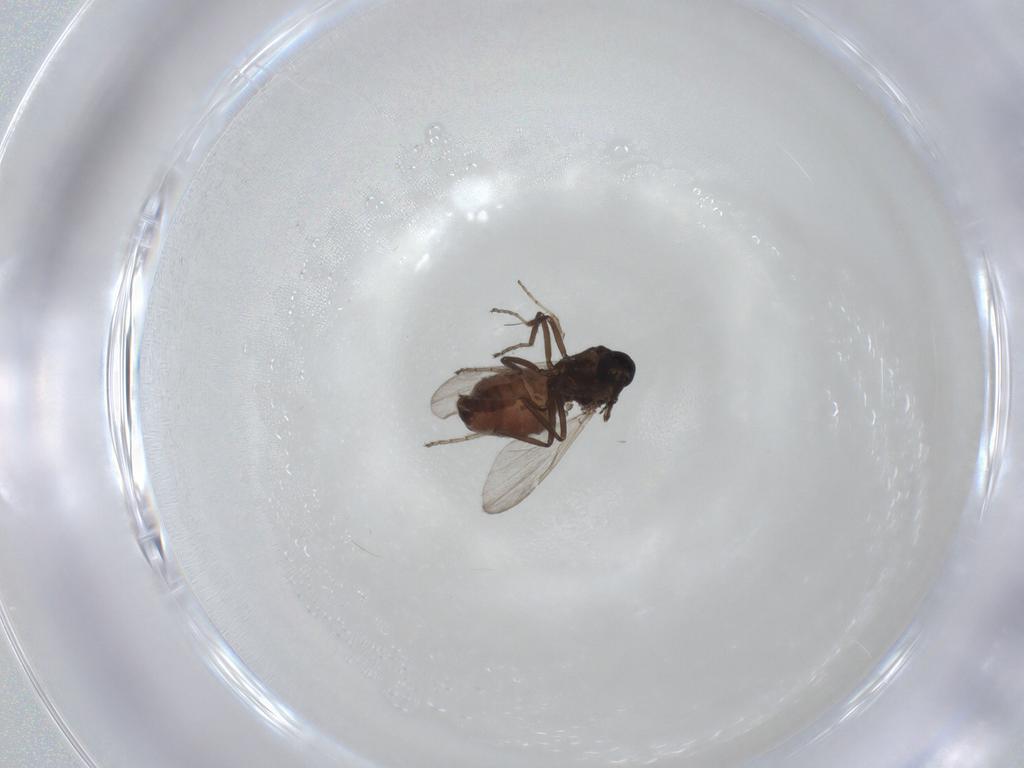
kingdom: Animalia
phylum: Arthropoda
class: Insecta
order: Diptera
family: Ceratopogonidae
